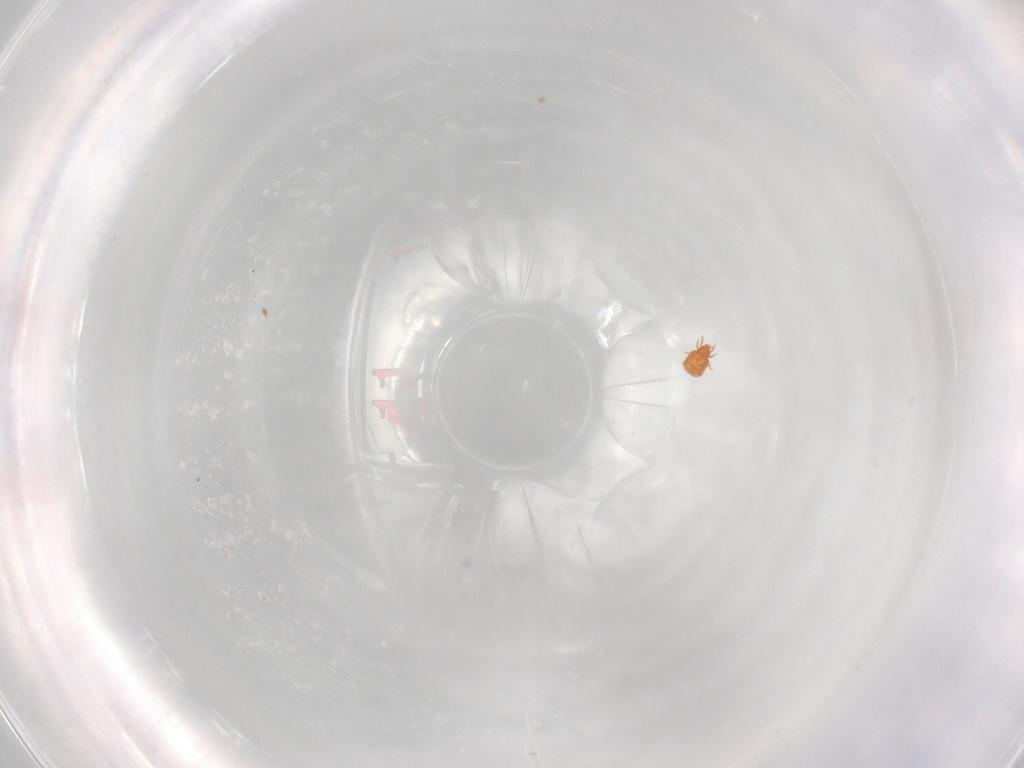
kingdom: Animalia
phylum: Arthropoda
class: Arachnida
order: Sarcoptiformes
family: Brachychthoniidae
